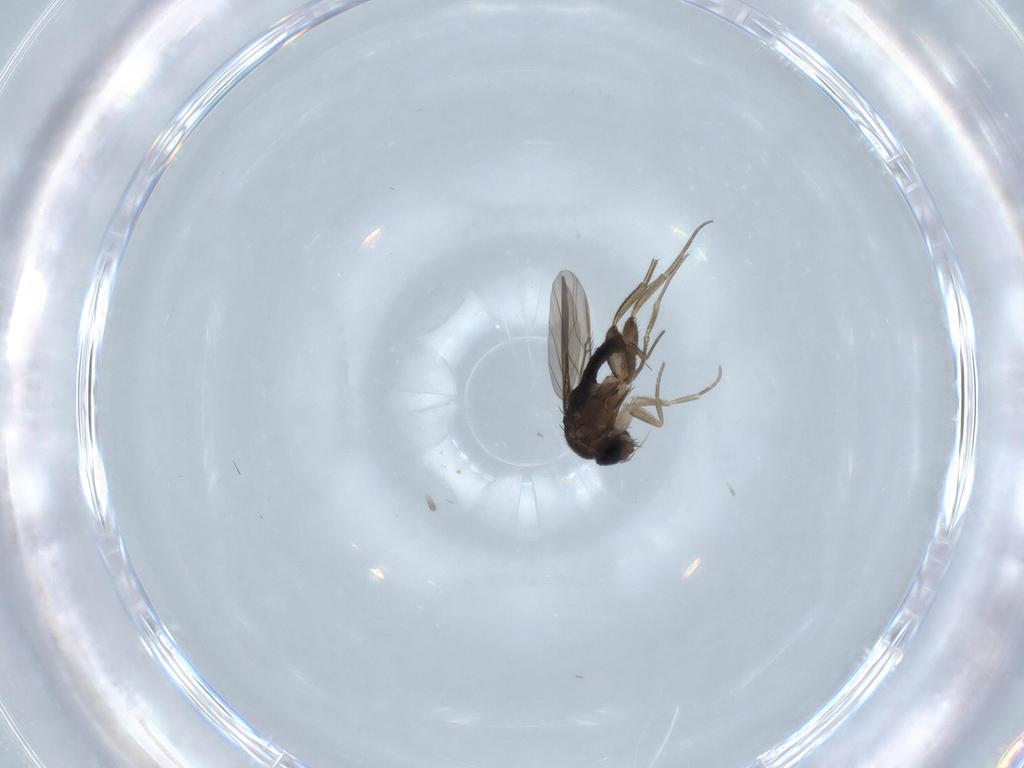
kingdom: Animalia
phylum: Arthropoda
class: Insecta
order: Diptera
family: Phoridae
